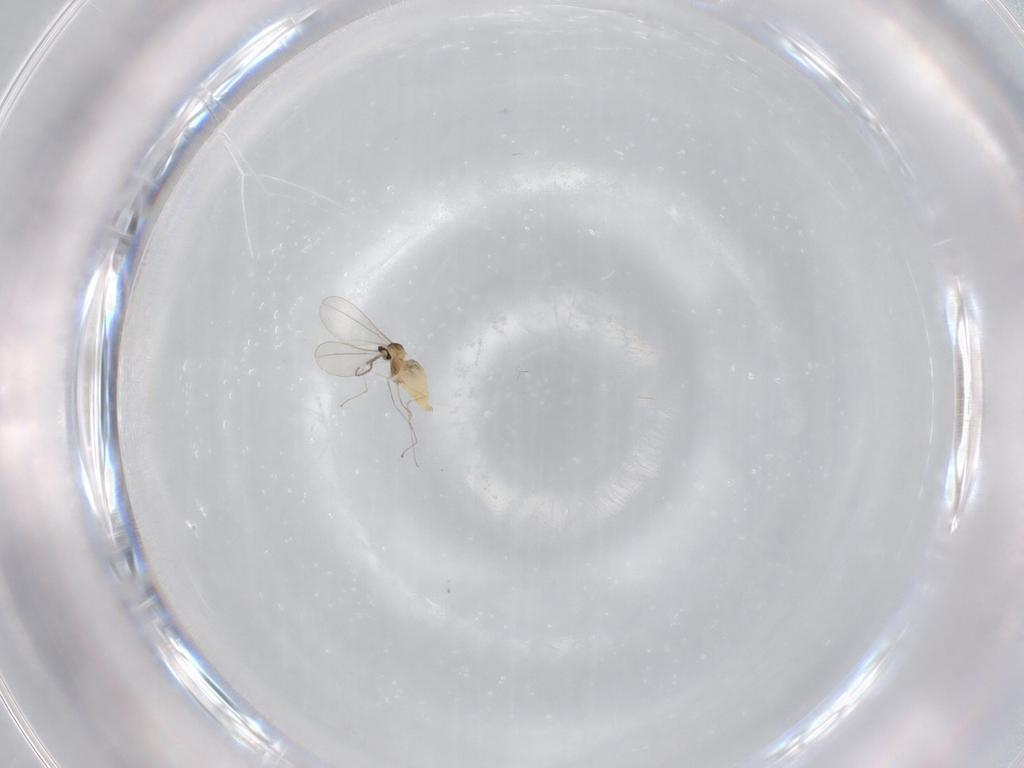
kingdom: Animalia
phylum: Arthropoda
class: Insecta
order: Diptera
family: Cecidomyiidae
